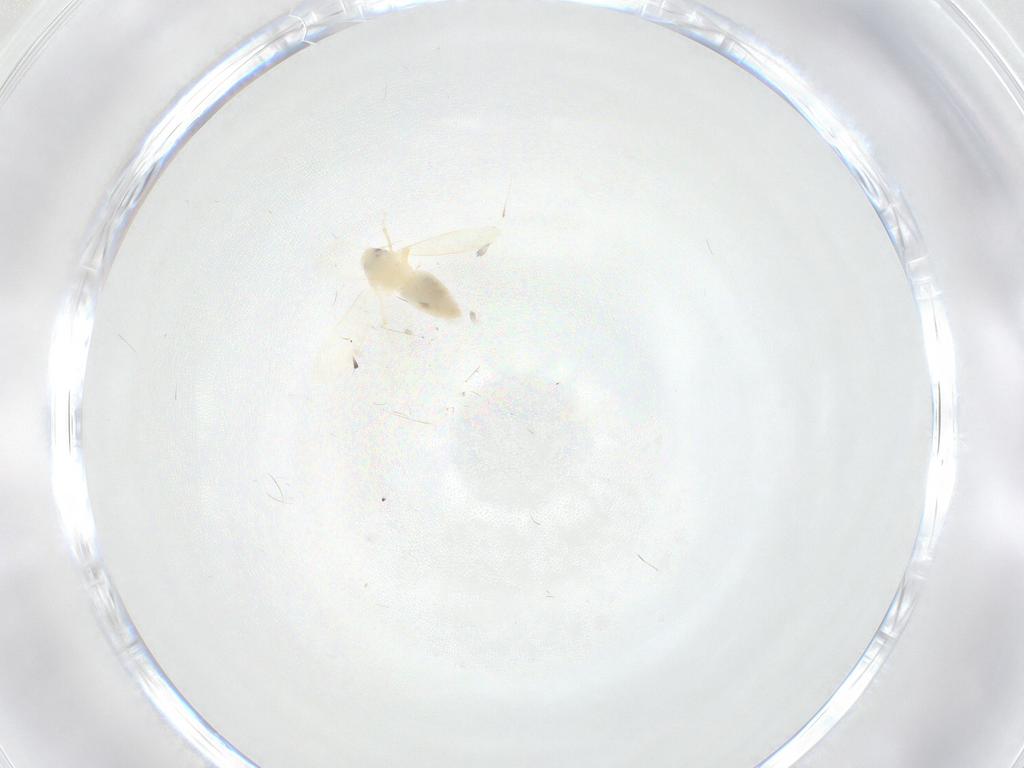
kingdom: Animalia
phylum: Arthropoda
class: Insecta
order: Hemiptera
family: Aleyrodidae
